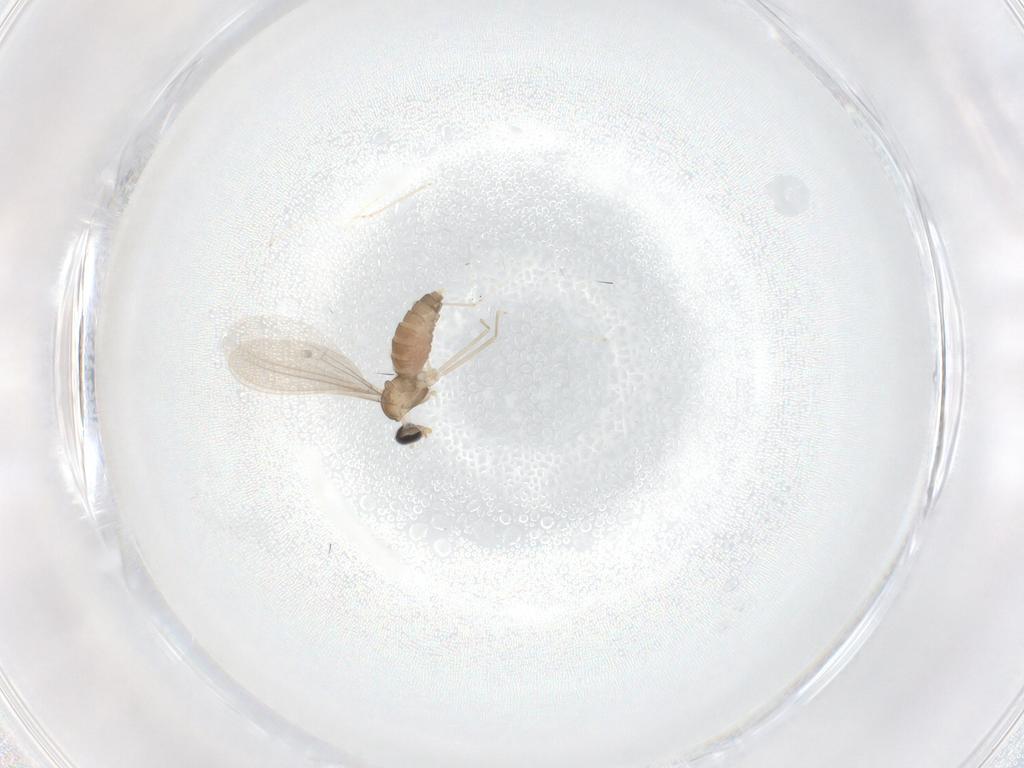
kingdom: Animalia
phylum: Arthropoda
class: Insecta
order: Diptera
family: Cecidomyiidae
